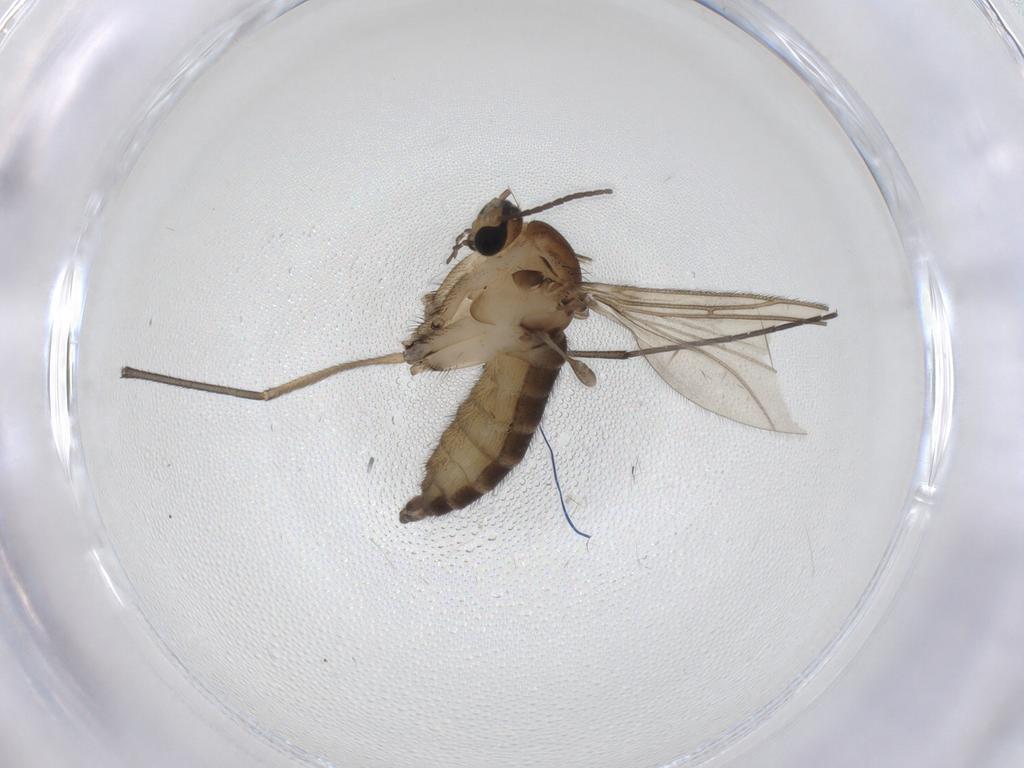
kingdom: Animalia
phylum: Arthropoda
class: Insecta
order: Diptera
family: Sciaridae
